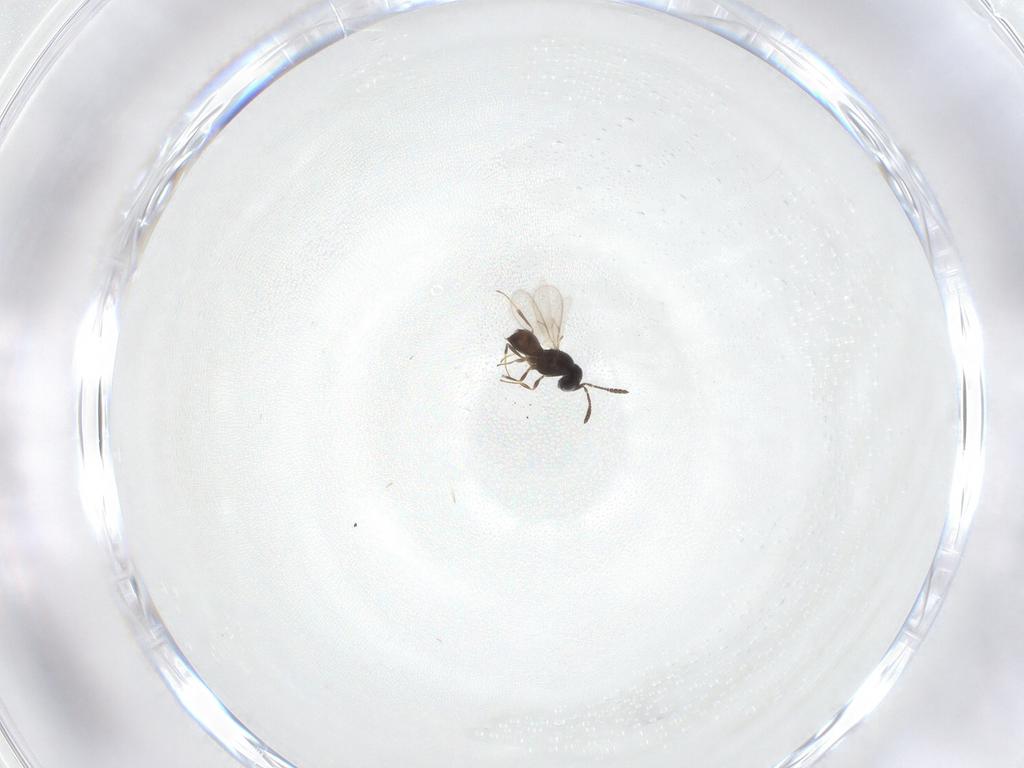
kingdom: Animalia
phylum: Arthropoda
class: Insecta
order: Hymenoptera
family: Scelionidae
